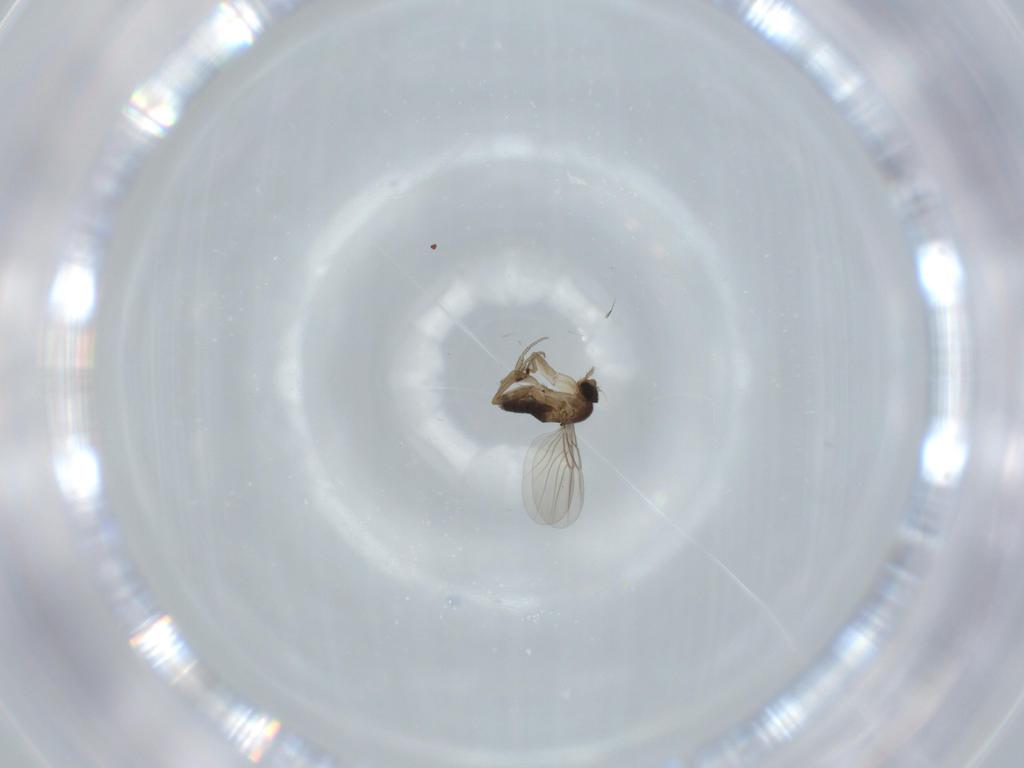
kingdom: Animalia
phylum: Arthropoda
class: Insecta
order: Diptera
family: Phoridae
